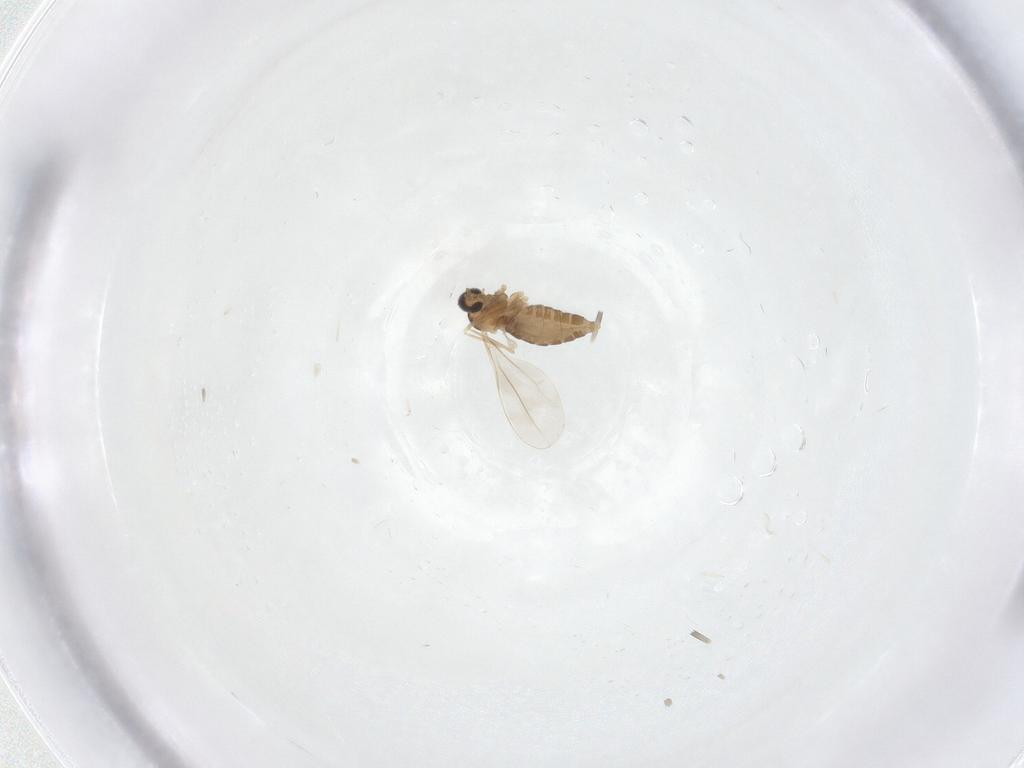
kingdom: Animalia
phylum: Arthropoda
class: Insecta
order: Diptera
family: Cecidomyiidae
